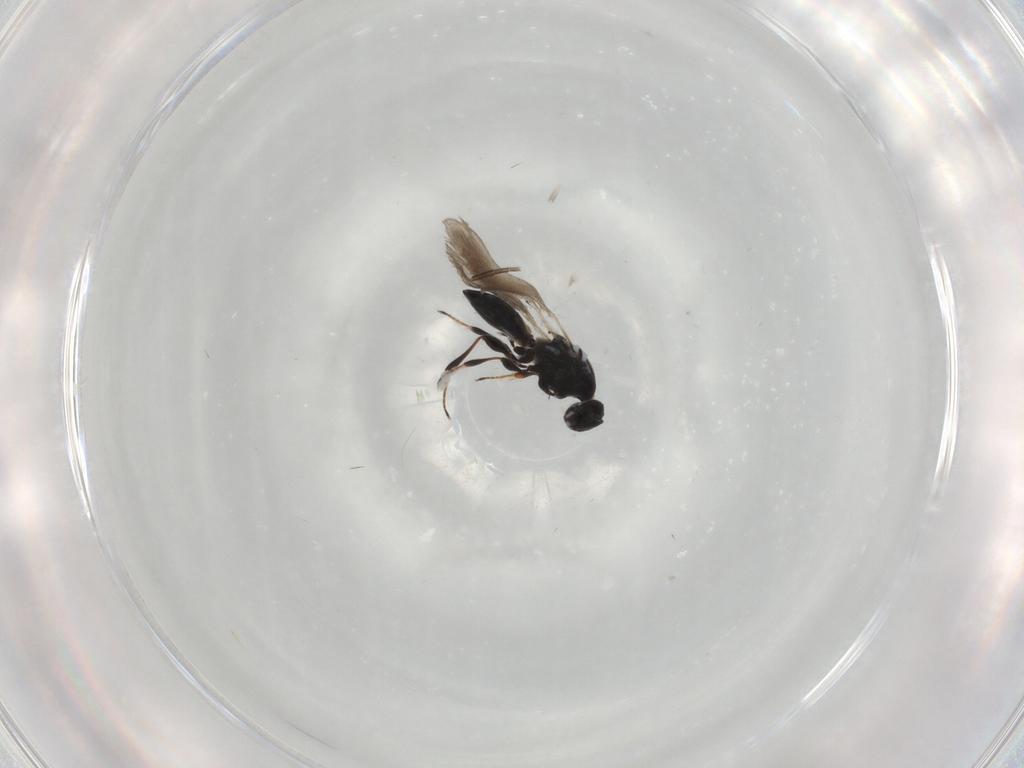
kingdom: Animalia
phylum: Arthropoda
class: Insecta
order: Hymenoptera
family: Platygastridae
